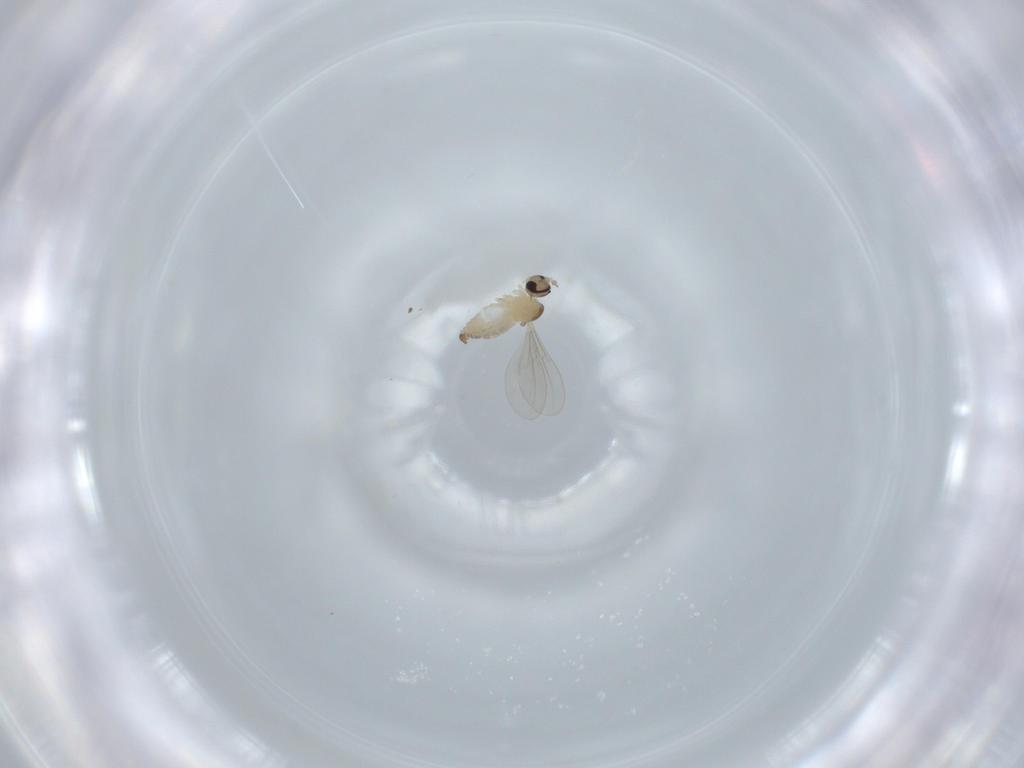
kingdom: Animalia
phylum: Arthropoda
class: Insecta
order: Diptera
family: Cecidomyiidae
